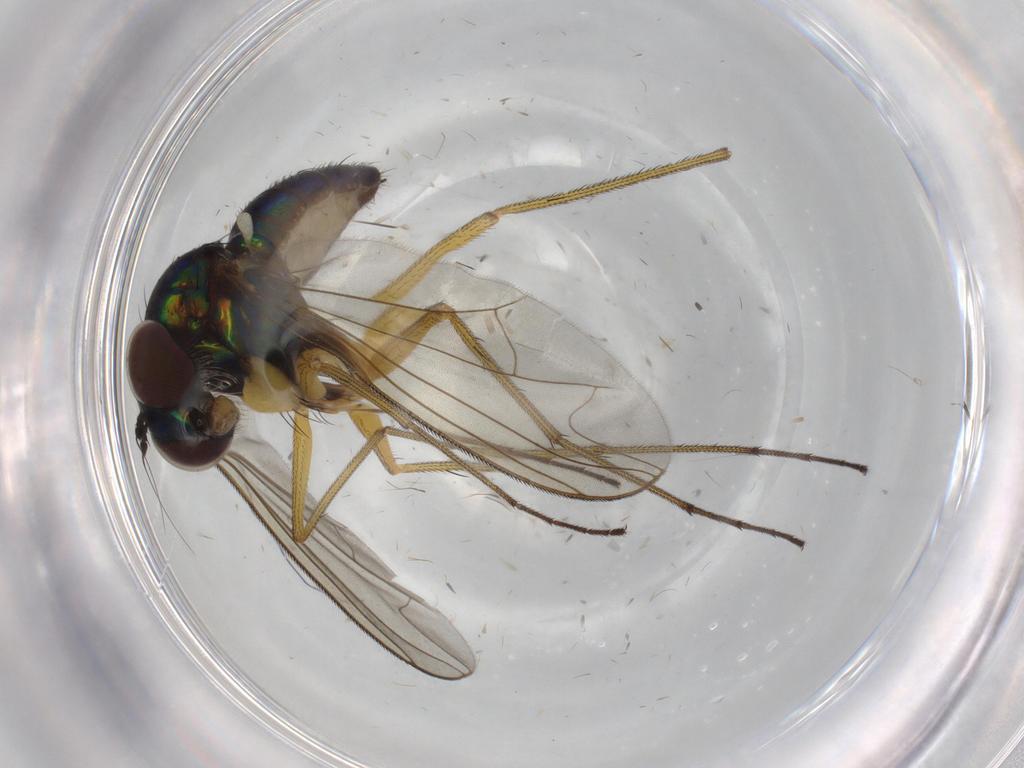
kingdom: Animalia
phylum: Arthropoda
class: Insecta
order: Diptera
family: Dolichopodidae
